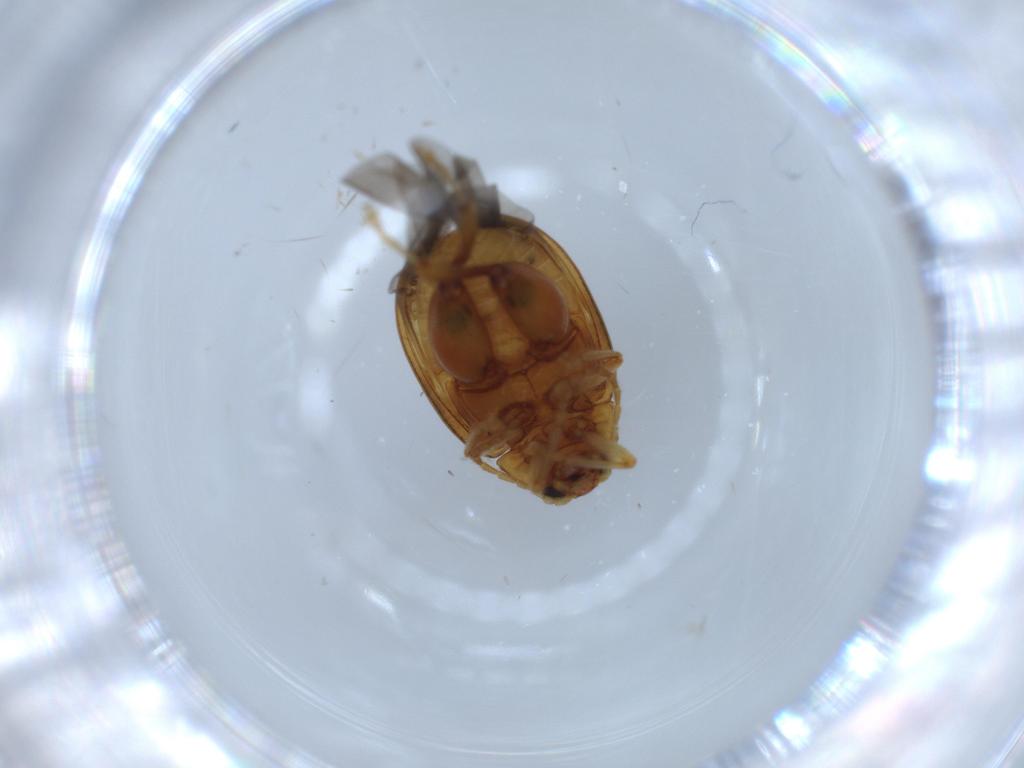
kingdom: Animalia
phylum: Arthropoda
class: Insecta
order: Coleoptera
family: Chrysomelidae
